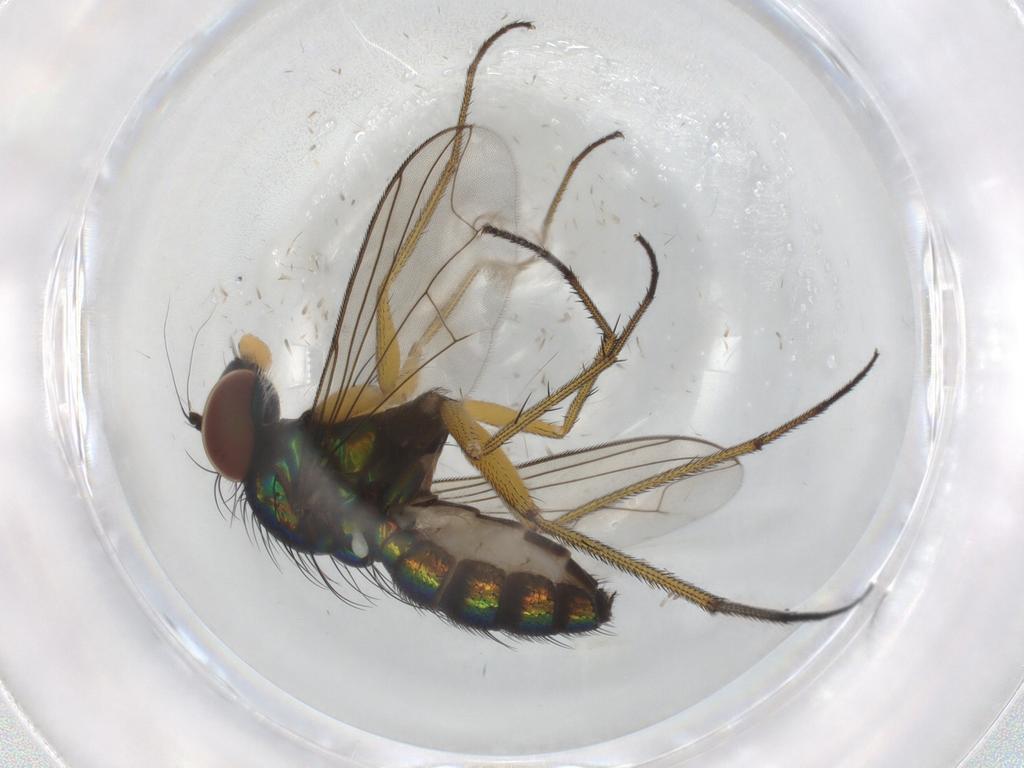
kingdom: Animalia
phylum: Arthropoda
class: Insecta
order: Diptera
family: Dolichopodidae
